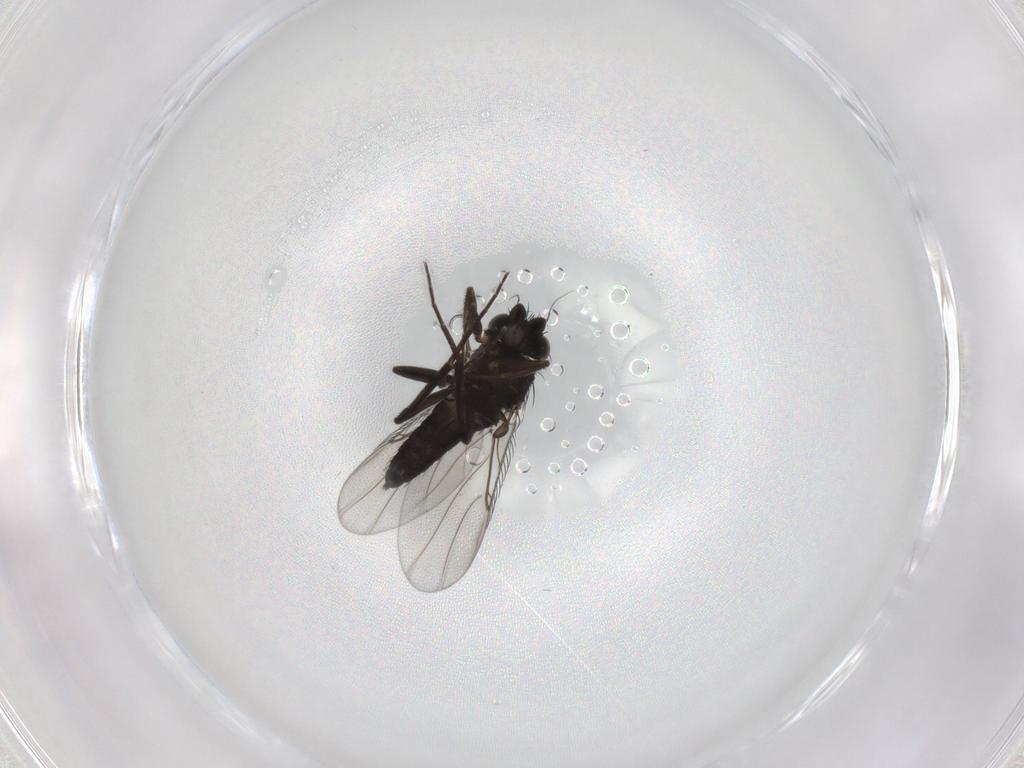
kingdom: Animalia
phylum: Arthropoda
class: Insecta
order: Diptera
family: Phoridae
